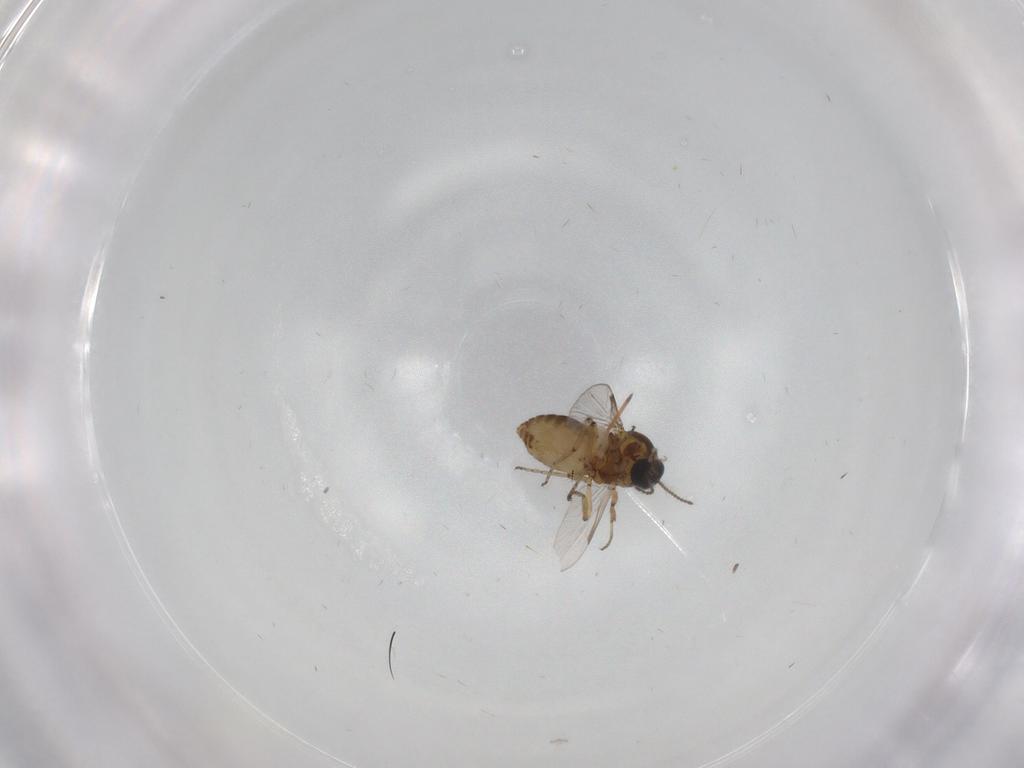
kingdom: Animalia
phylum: Arthropoda
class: Insecta
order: Diptera
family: Chironomidae
